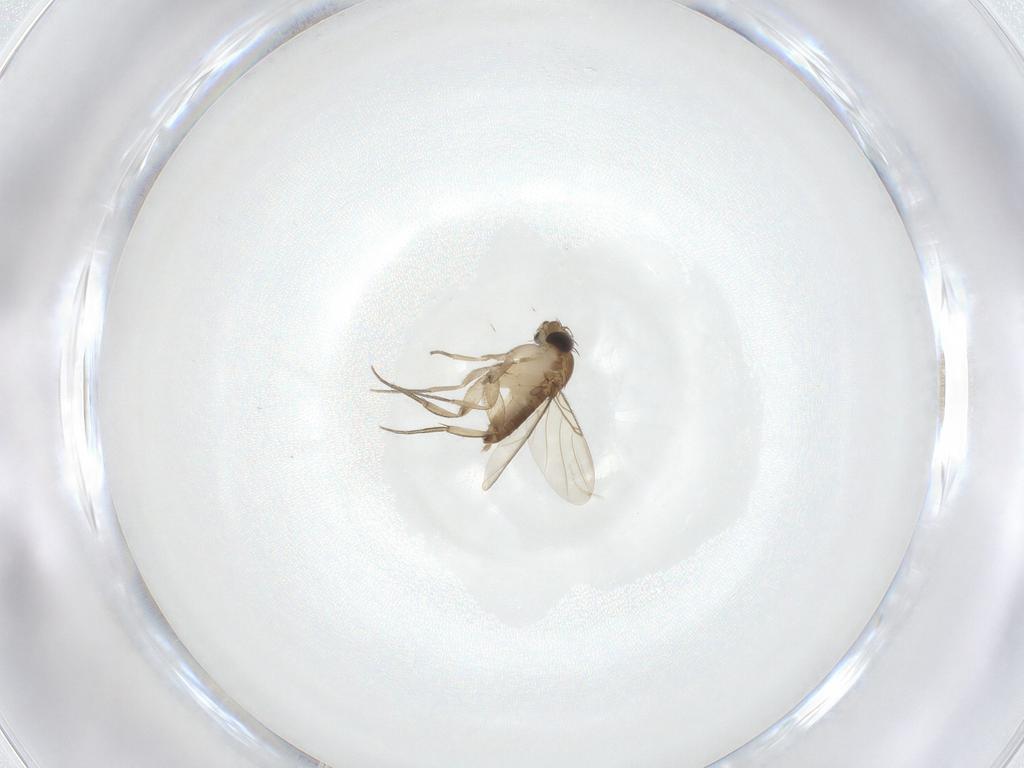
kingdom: Animalia
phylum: Arthropoda
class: Insecta
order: Diptera
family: Phoridae
